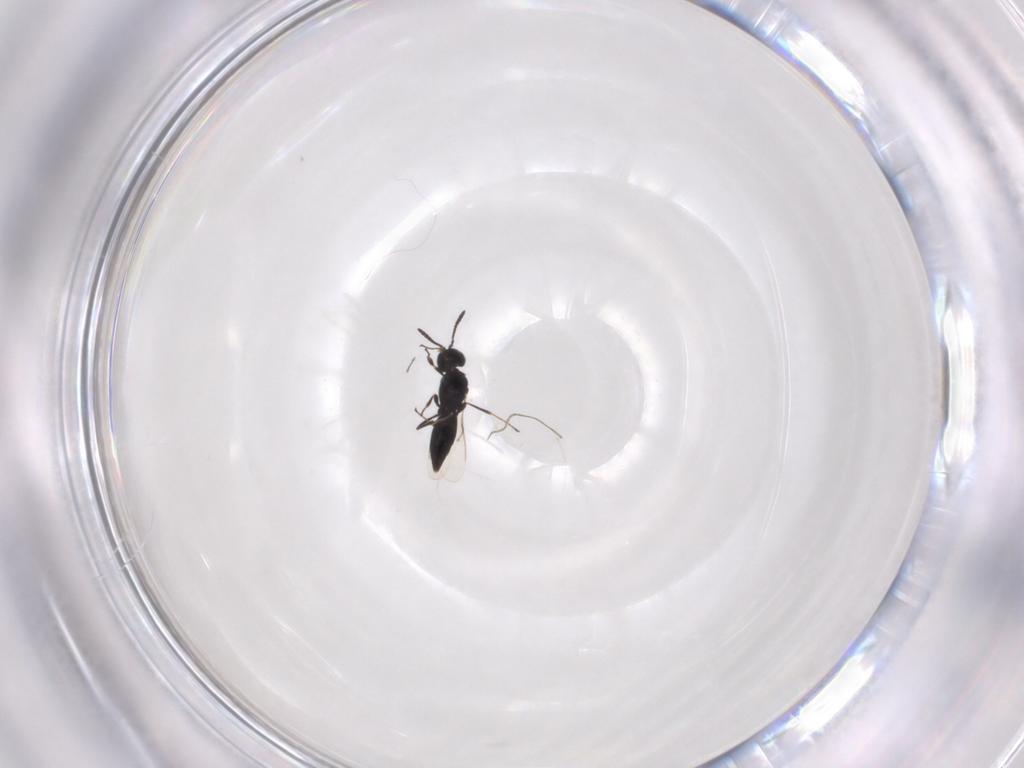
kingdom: Animalia
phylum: Arthropoda
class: Insecta
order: Hymenoptera
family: Scelionidae
